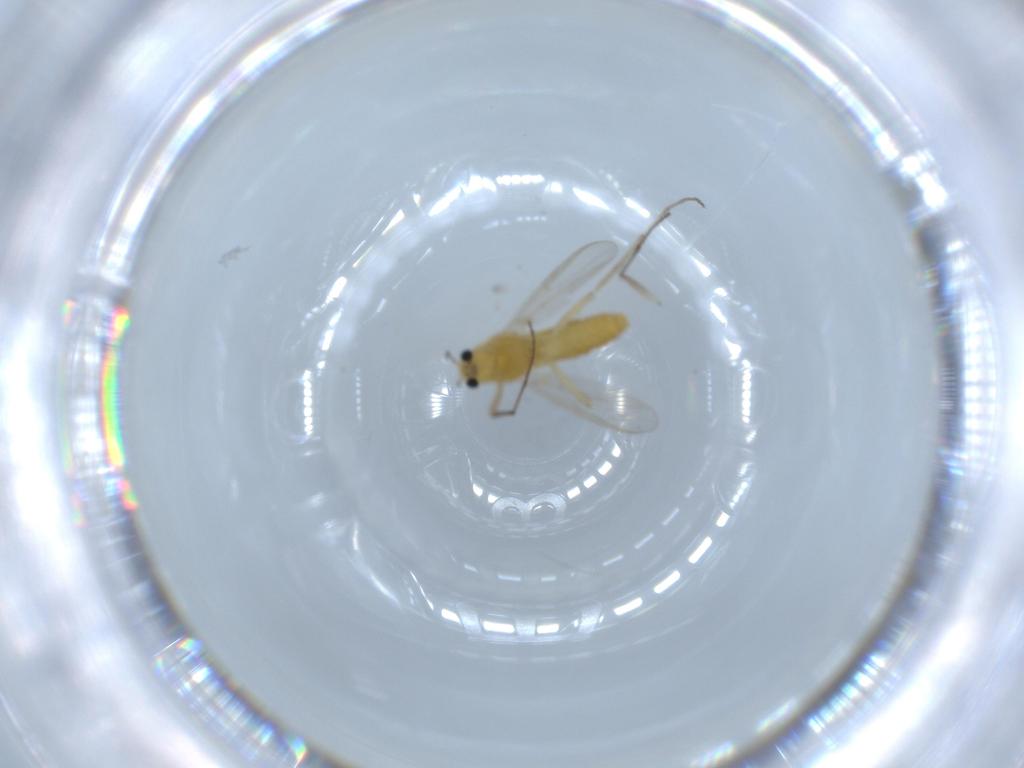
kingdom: Animalia
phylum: Arthropoda
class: Insecta
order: Diptera
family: Chironomidae
